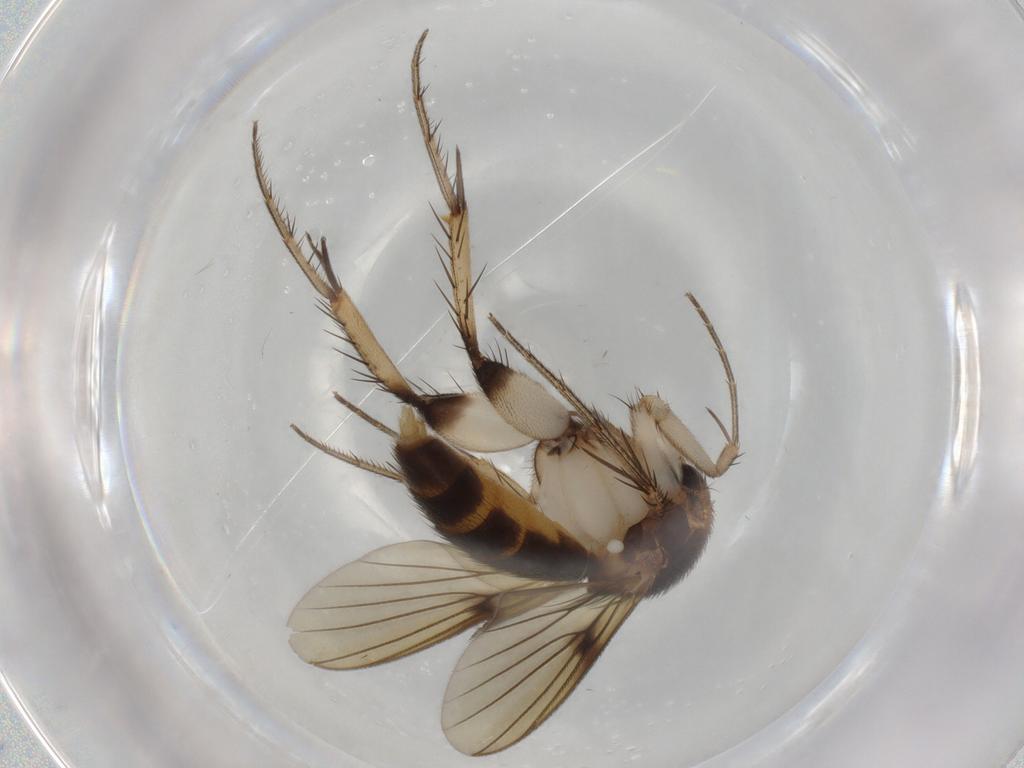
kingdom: Animalia
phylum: Arthropoda
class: Insecta
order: Diptera
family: Mycetophilidae
